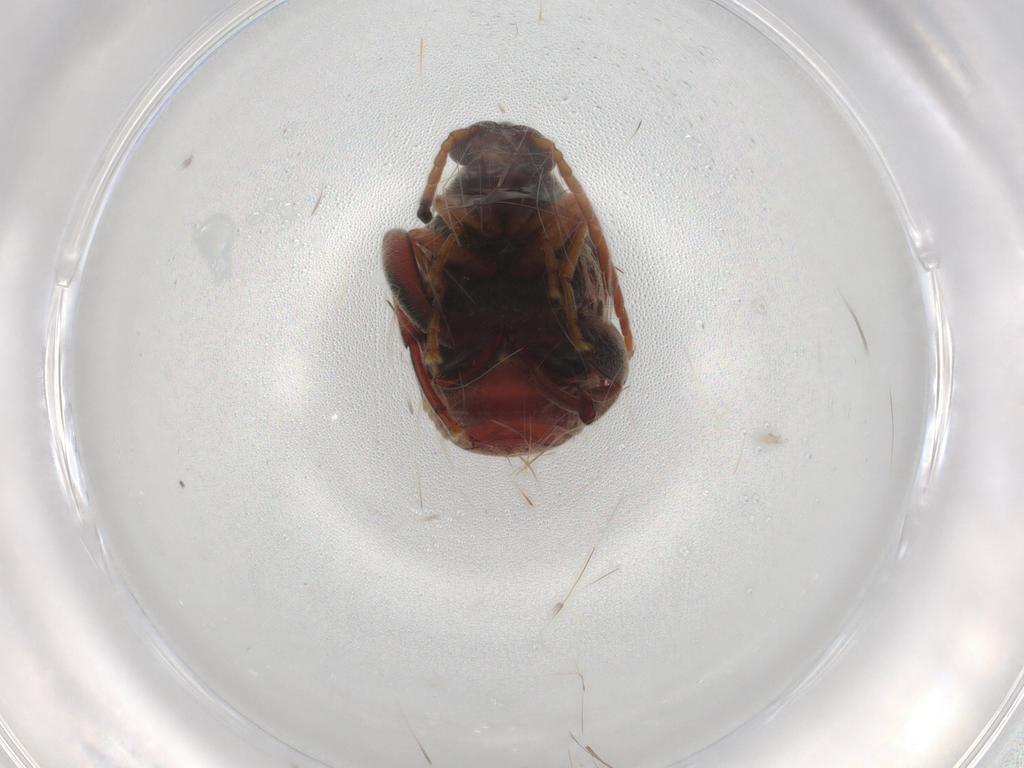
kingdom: Animalia
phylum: Arthropoda
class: Insecta
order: Coleoptera
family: Chrysomelidae
